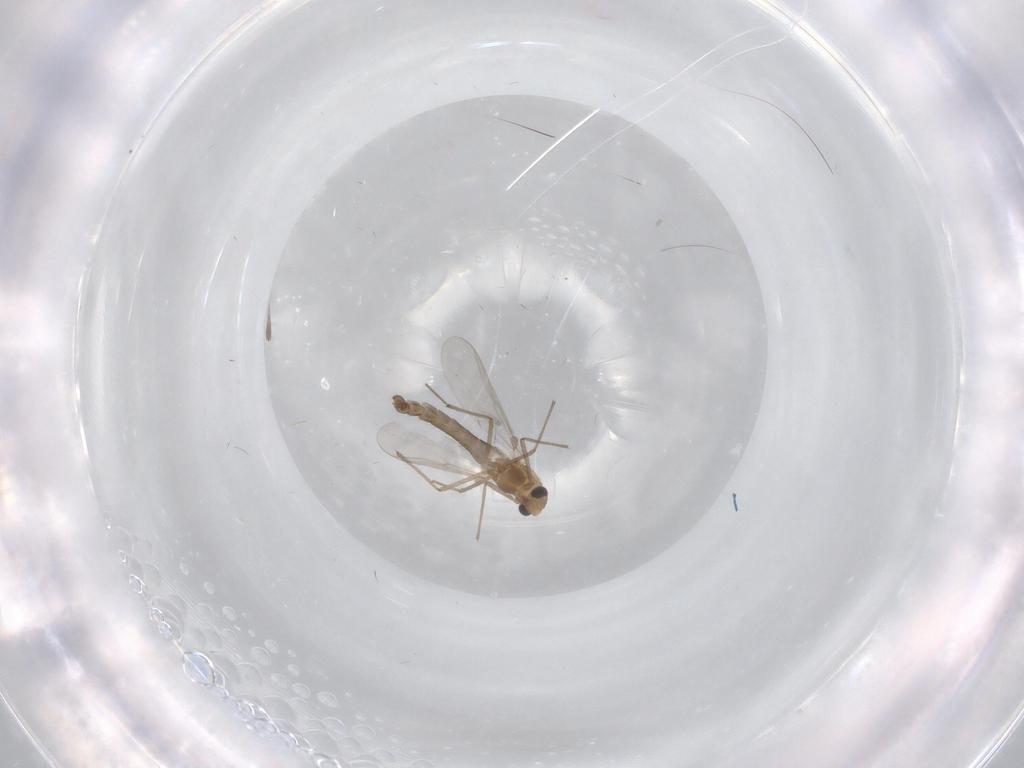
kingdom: Animalia
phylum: Arthropoda
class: Insecta
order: Diptera
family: Chironomidae
